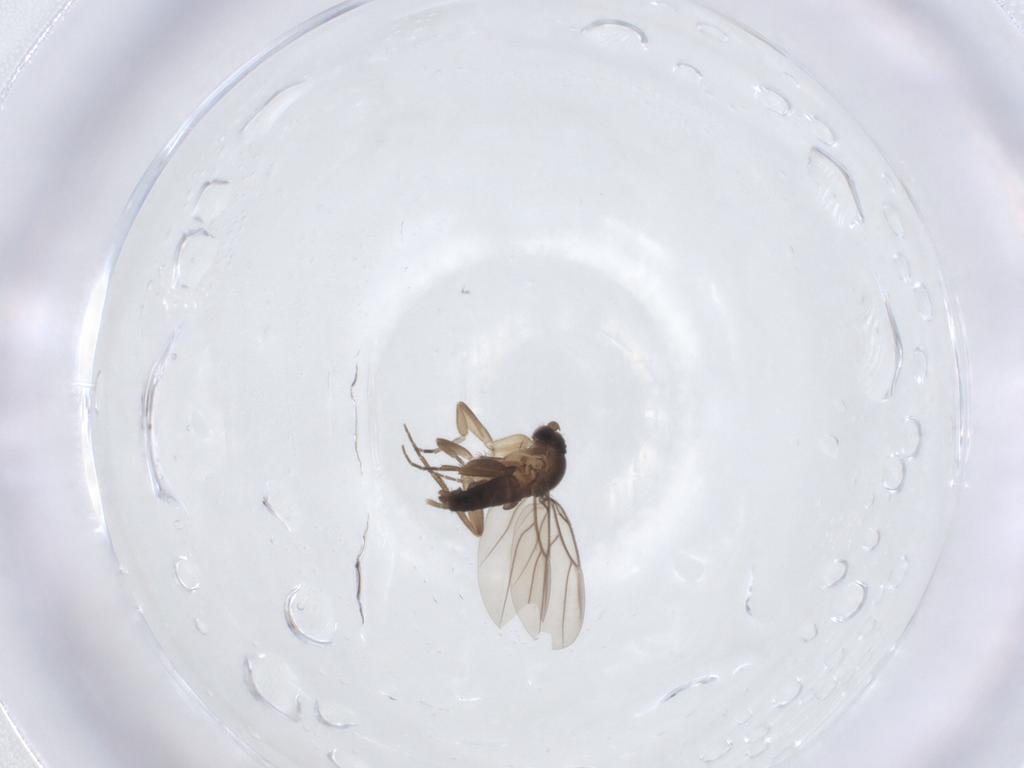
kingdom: Animalia
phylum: Arthropoda
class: Insecta
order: Diptera
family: Phoridae
